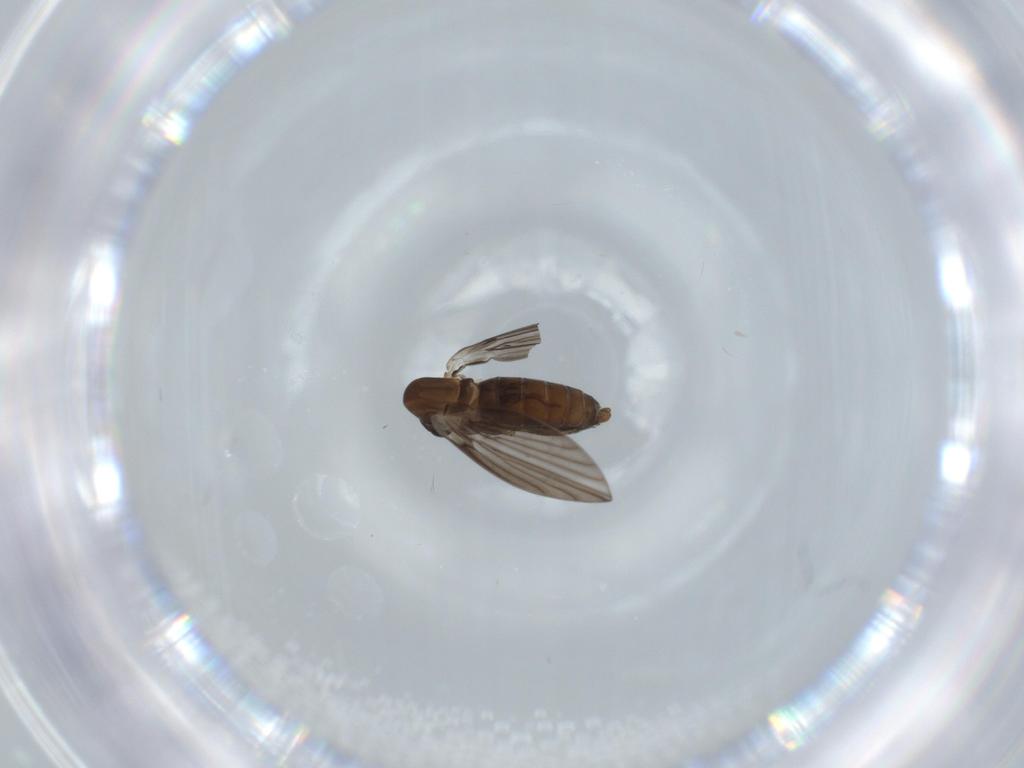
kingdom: Animalia
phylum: Arthropoda
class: Insecta
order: Diptera
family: Psychodidae
